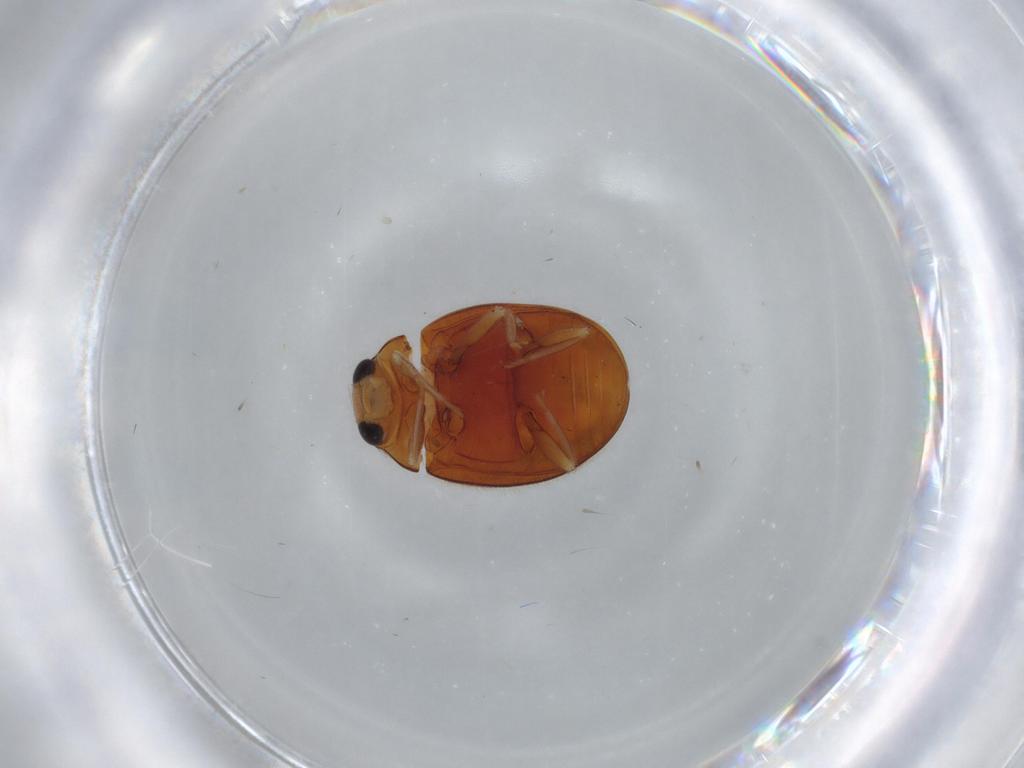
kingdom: Animalia
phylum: Arthropoda
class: Insecta
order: Coleoptera
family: Coccinellidae
